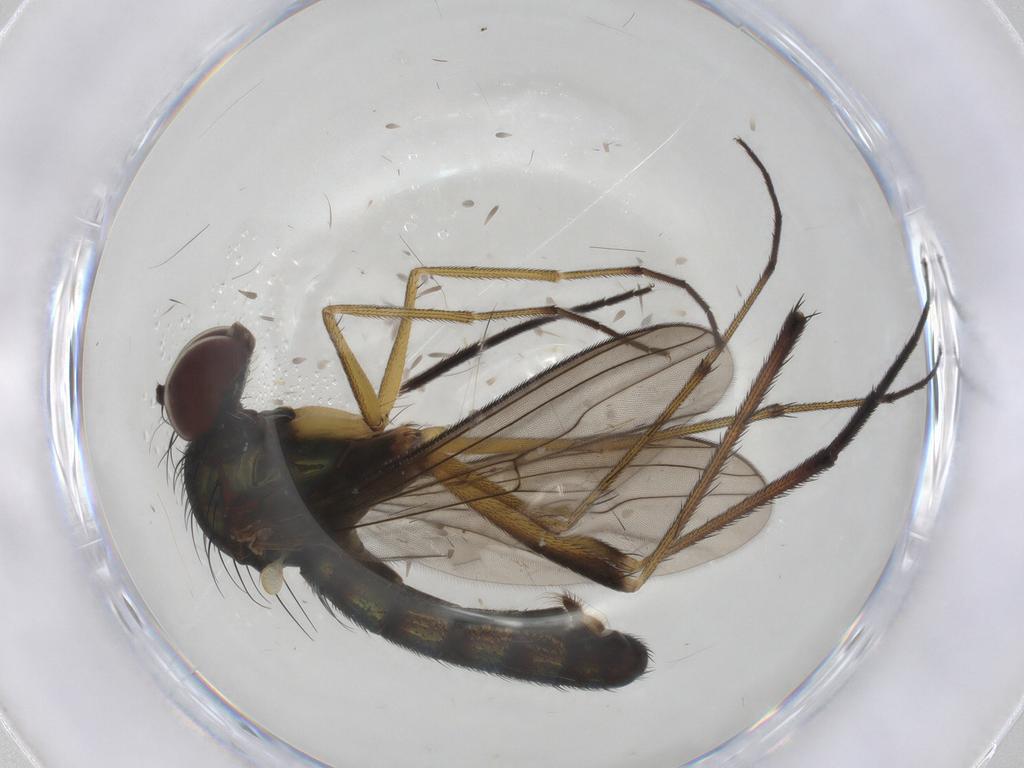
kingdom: Animalia
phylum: Arthropoda
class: Insecta
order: Diptera
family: Dolichopodidae
